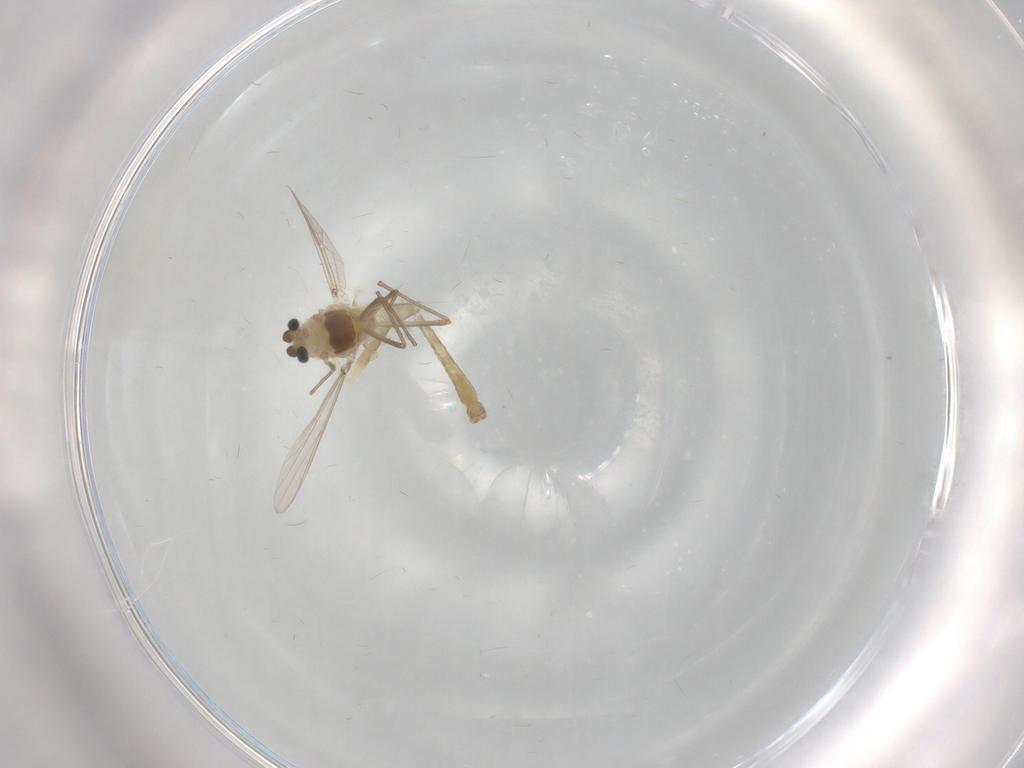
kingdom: Animalia
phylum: Arthropoda
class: Insecta
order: Diptera
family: Chironomidae
